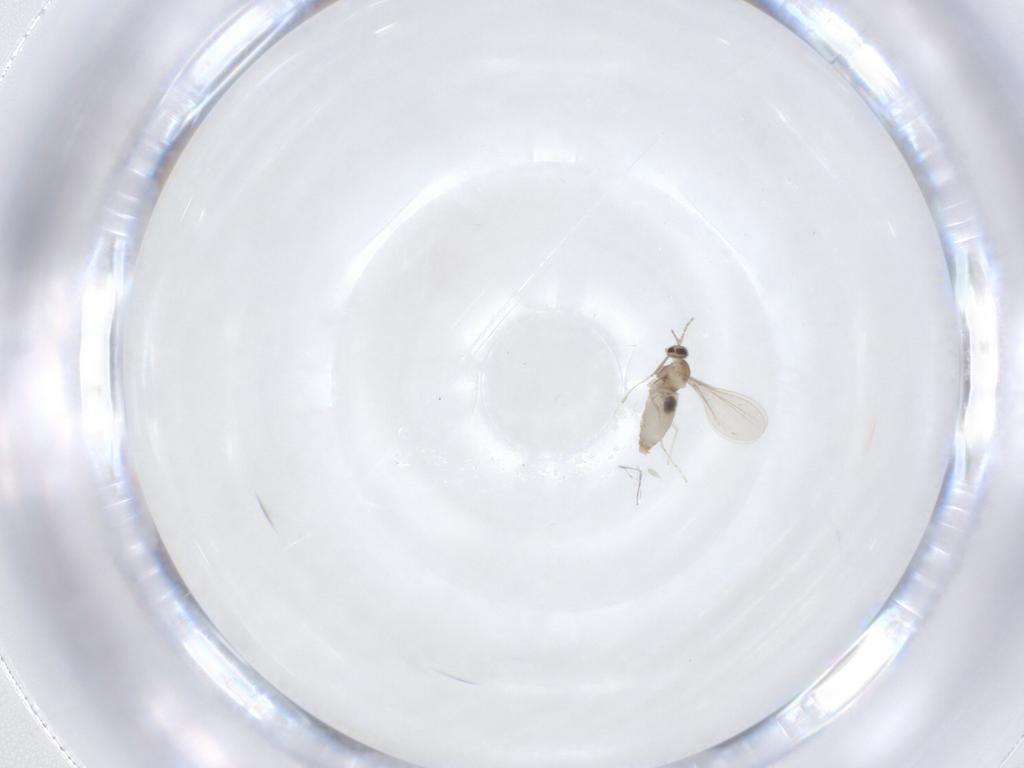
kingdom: Animalia
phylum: Arthropoda
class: Insecta
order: Diptera
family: Cecidomyiidae
